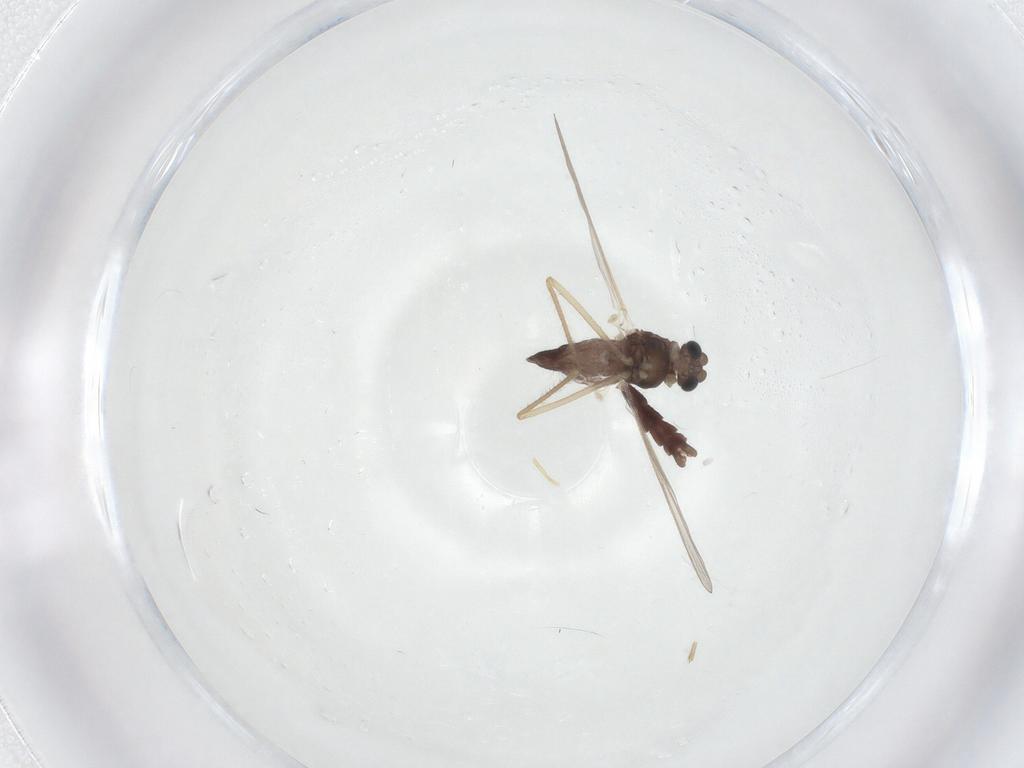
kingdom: Animalia
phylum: Arthropoda
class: Insecta
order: Diptera
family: Chironomidae
